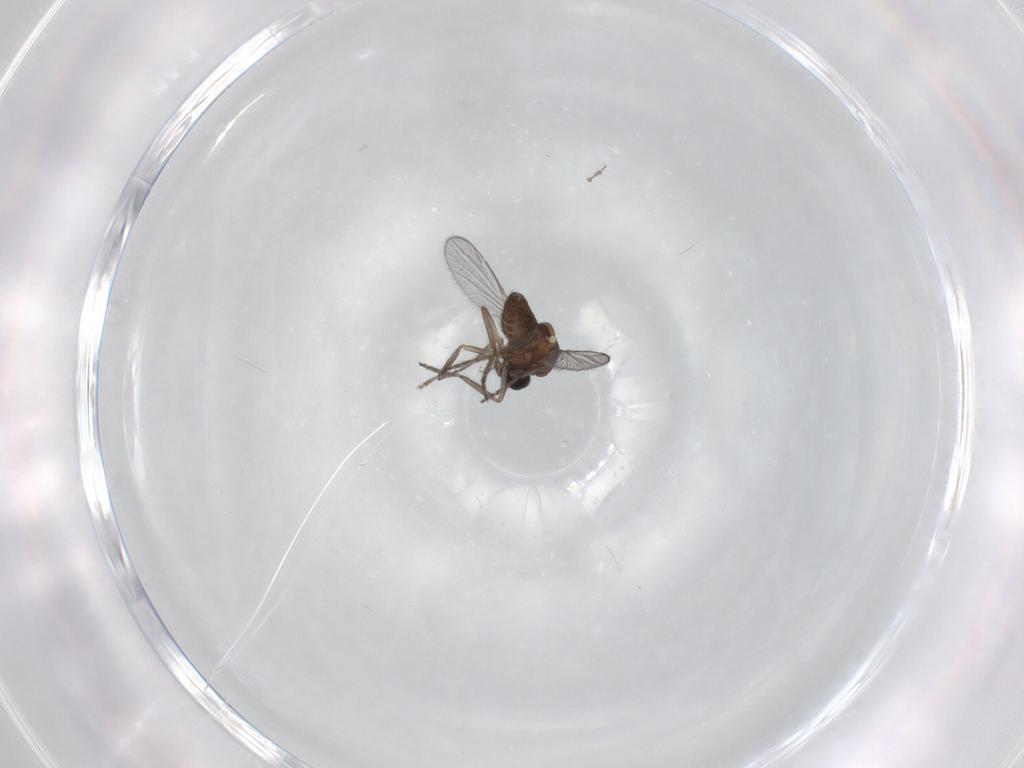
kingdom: Animalia
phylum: Arthropoda
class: Insecta
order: Diptera
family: Cecidomyiidae
